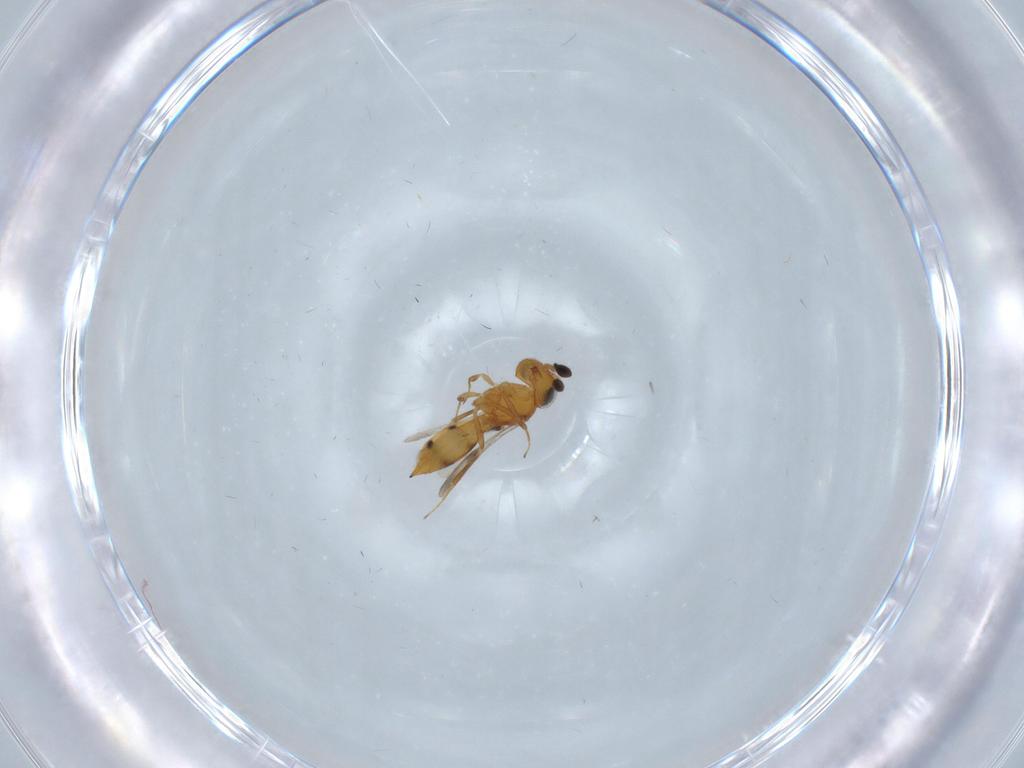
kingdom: Animalia
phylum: Arthropoda
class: Insecta
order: Hymenoptera
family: Scelionidae
